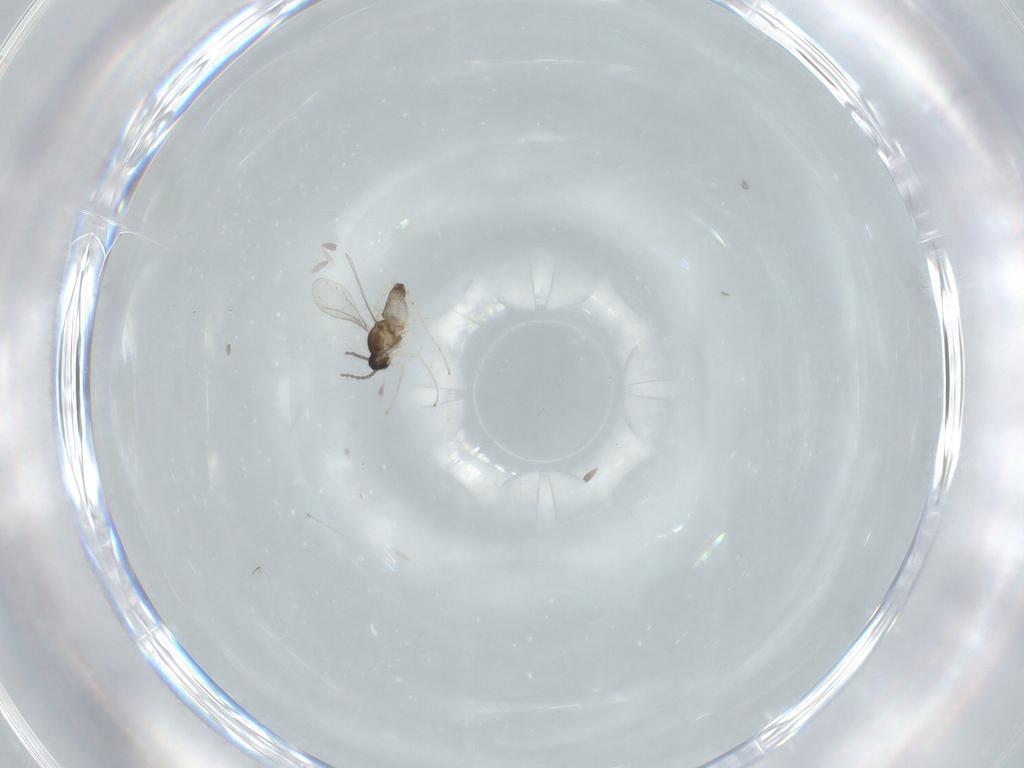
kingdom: Animalia
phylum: Arthropoda
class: Insecta
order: Diptera
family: Cecidomyiidae
